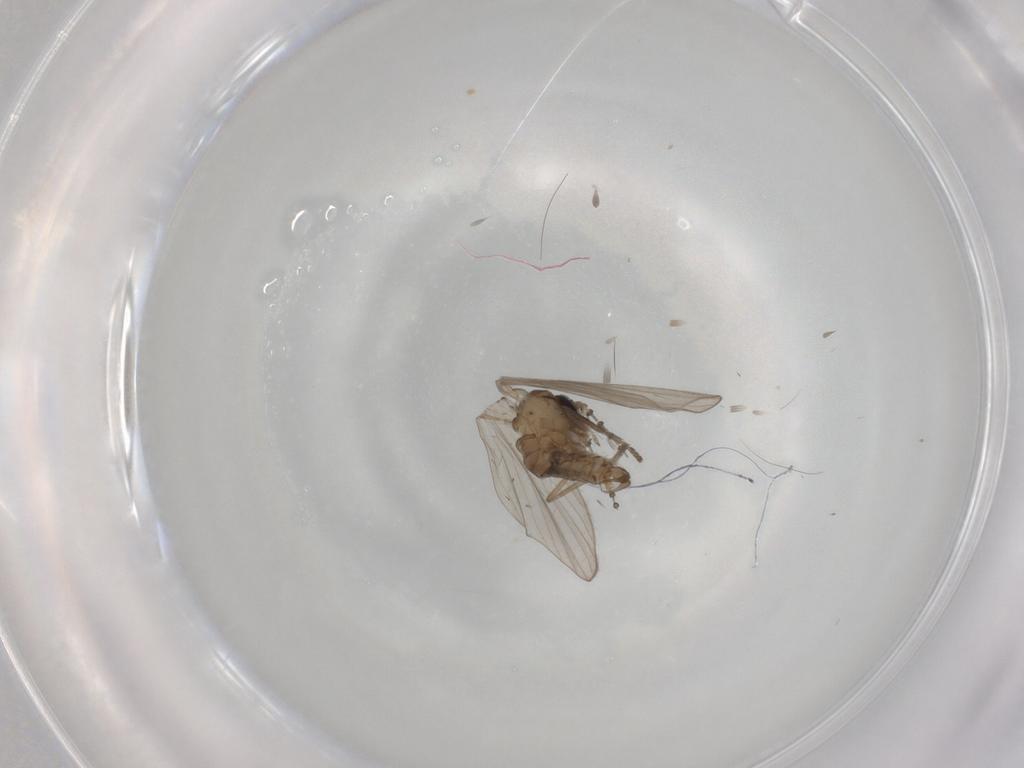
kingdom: Animalia
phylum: Arthropoda
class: Insecta
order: Diptera
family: Psychodidae
